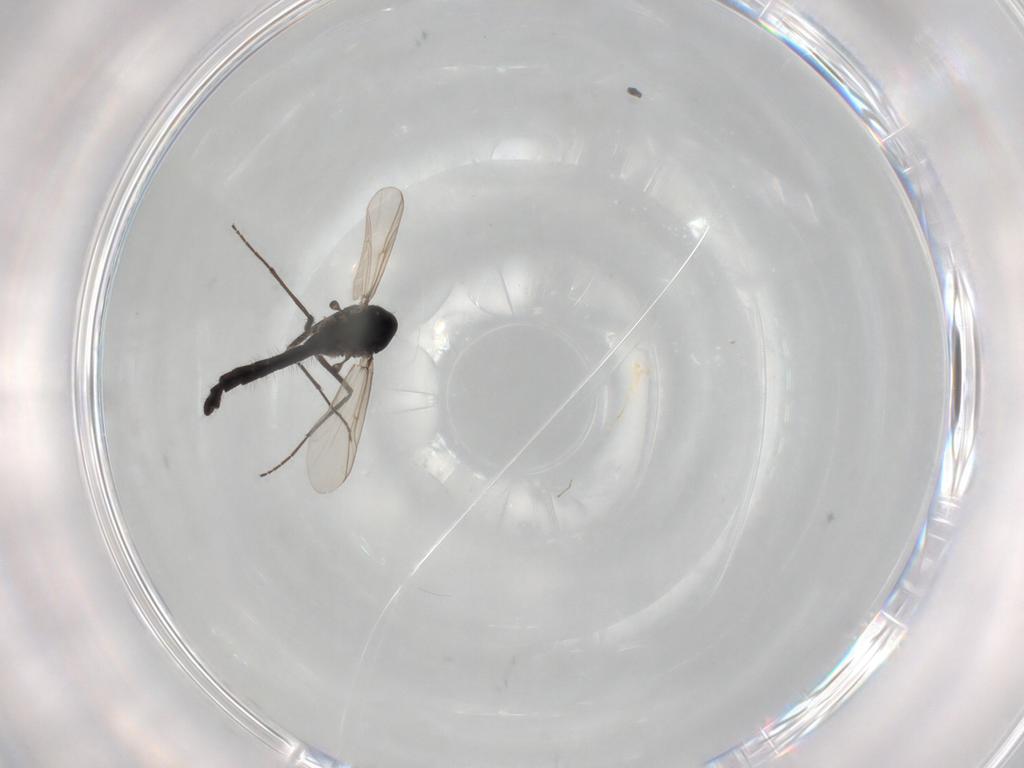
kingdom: Animalia
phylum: Arthropoda
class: Insecta
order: Diptera
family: Chironomidae
